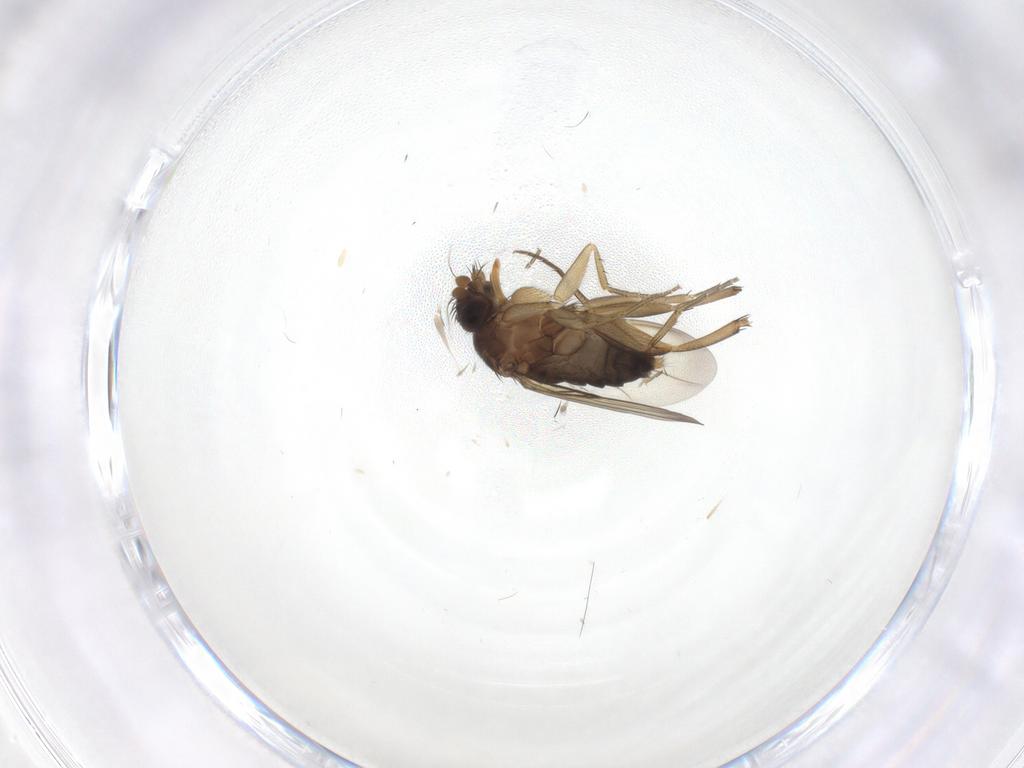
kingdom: Animalia
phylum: Arthropoda
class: Insecta
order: Diptera
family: Phoridae
